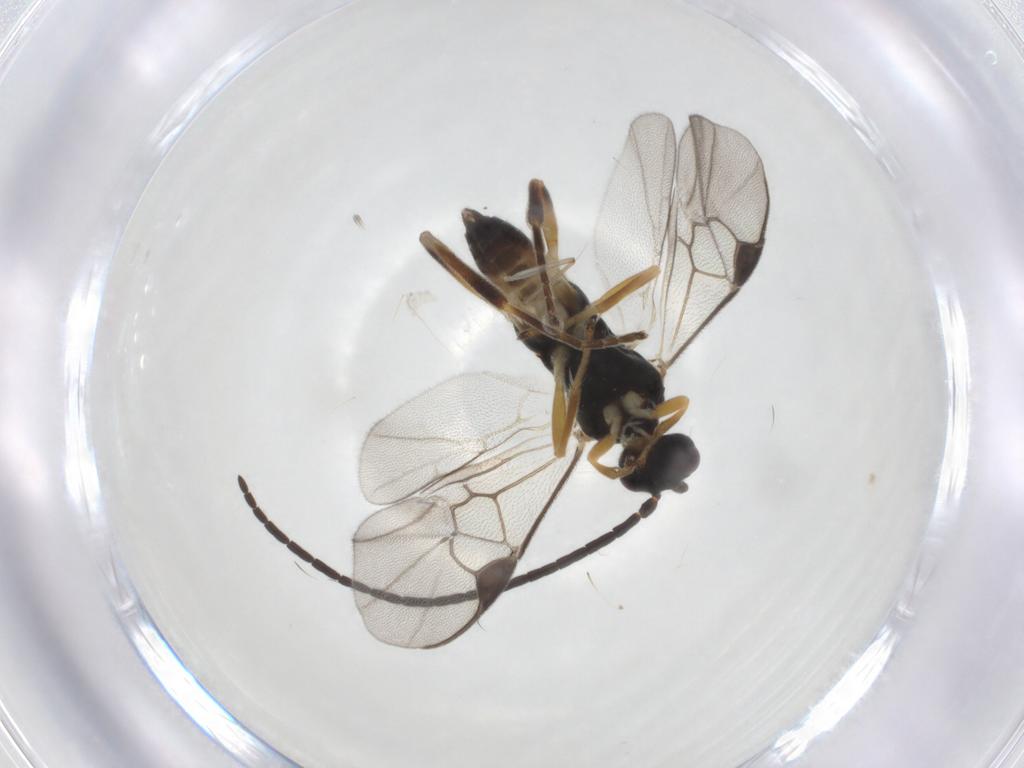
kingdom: Animalia
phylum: Arthropoda
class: Insecta
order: Hymenoptera
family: Braconidae
